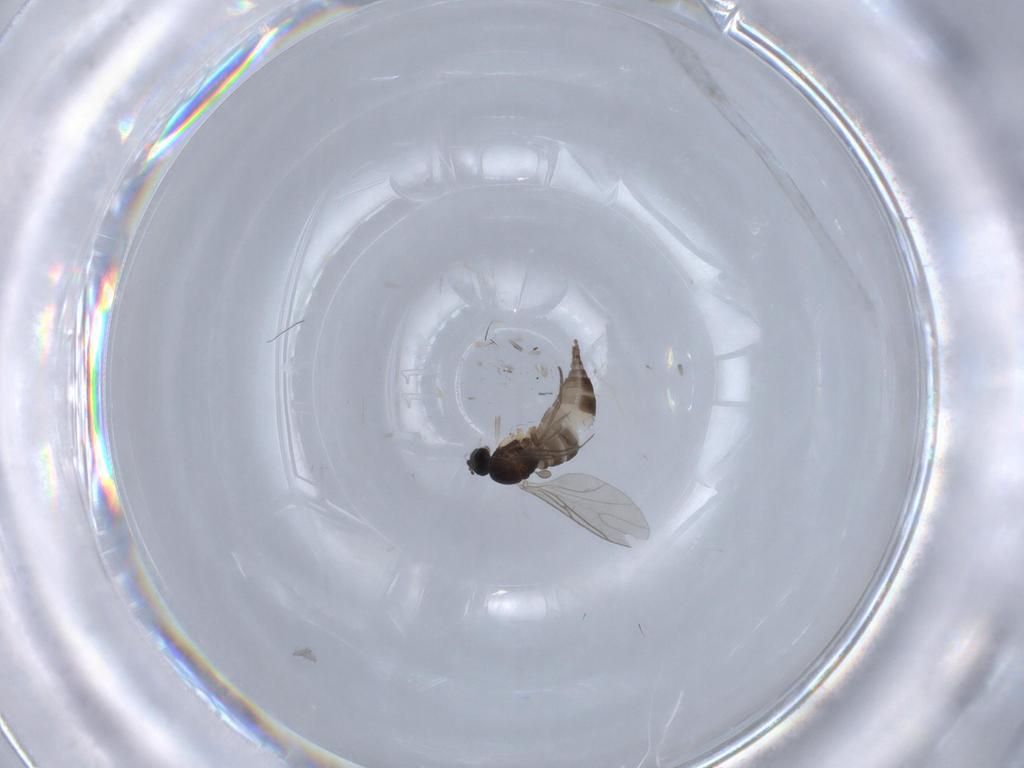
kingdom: Animalia
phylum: Arthropoda
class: Insecta
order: Diptera
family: Sciaridae
